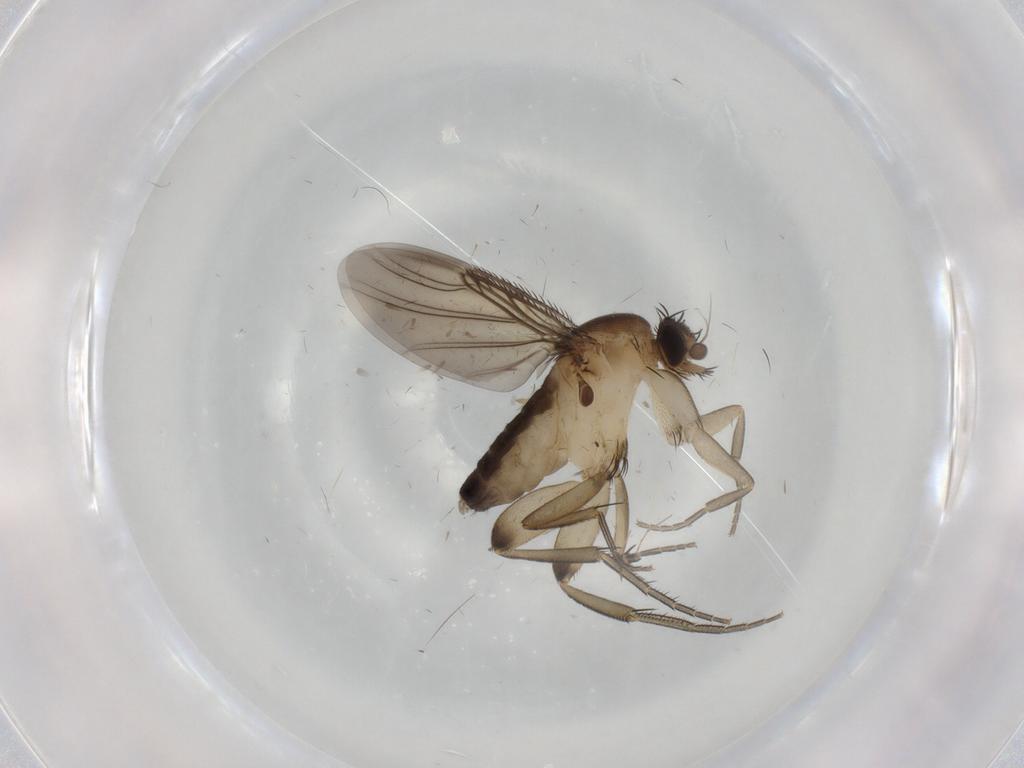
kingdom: Animalia
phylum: Arthropoda
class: Insecta
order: Diptera
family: Phoridae
